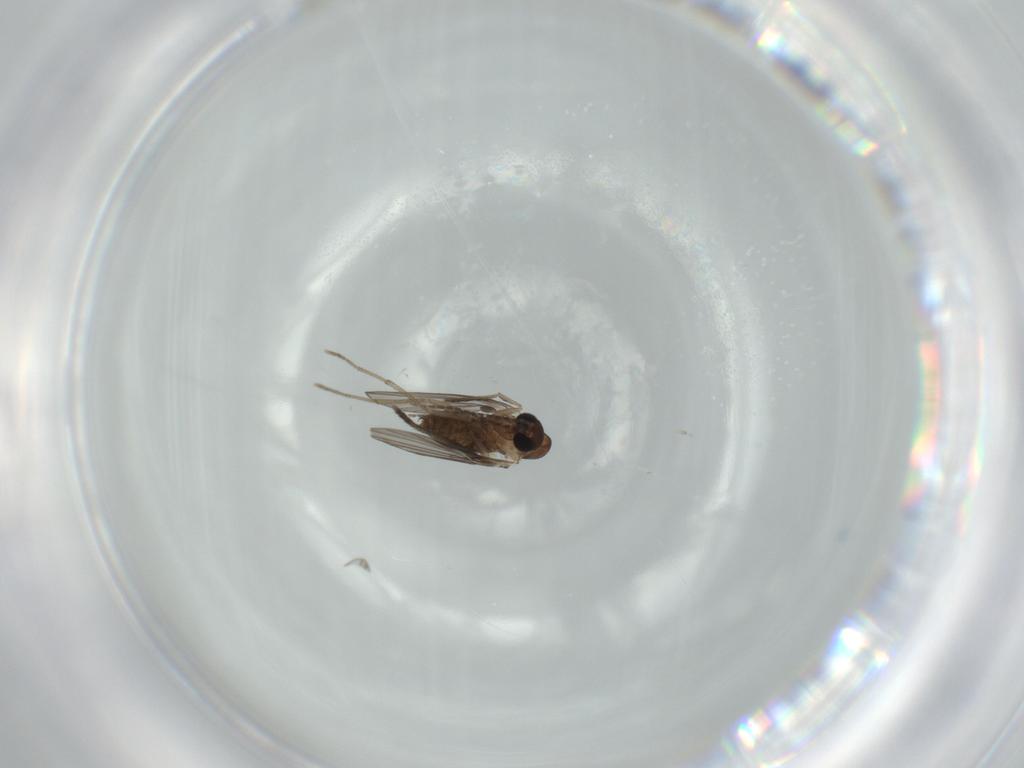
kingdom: Animalia
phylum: Arthropoda
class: Insecta
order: Diptera
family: Psychodidae
